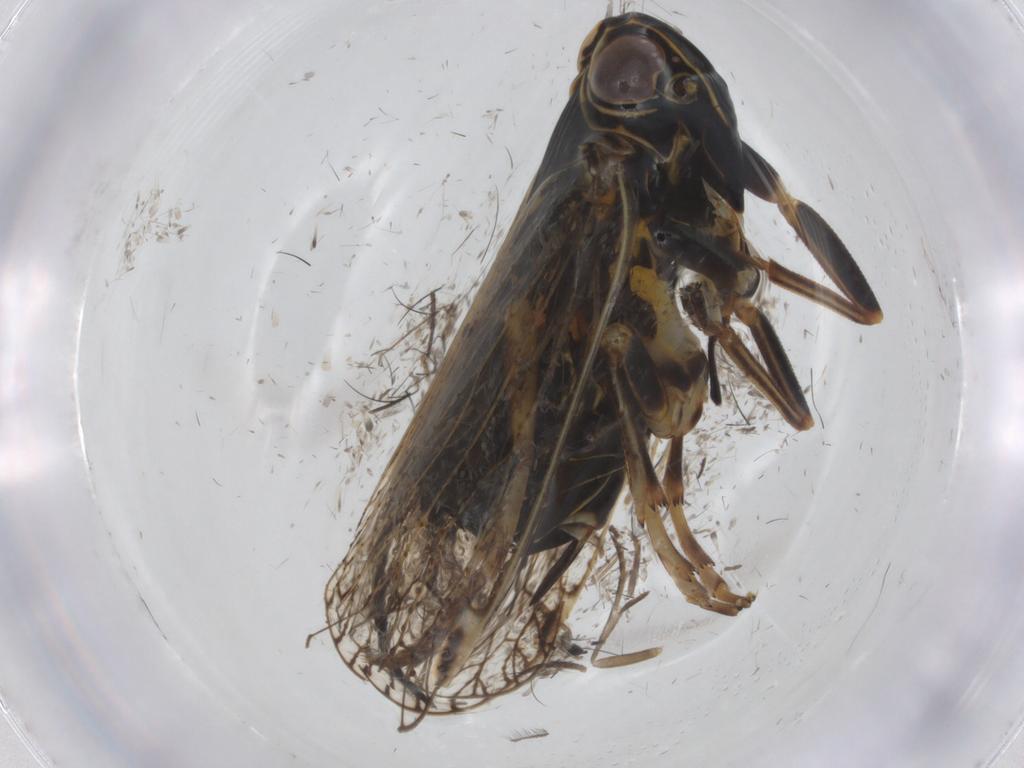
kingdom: Animalia
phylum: Arthropoda
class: Insecta
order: Hemiptera
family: Cixiidae
